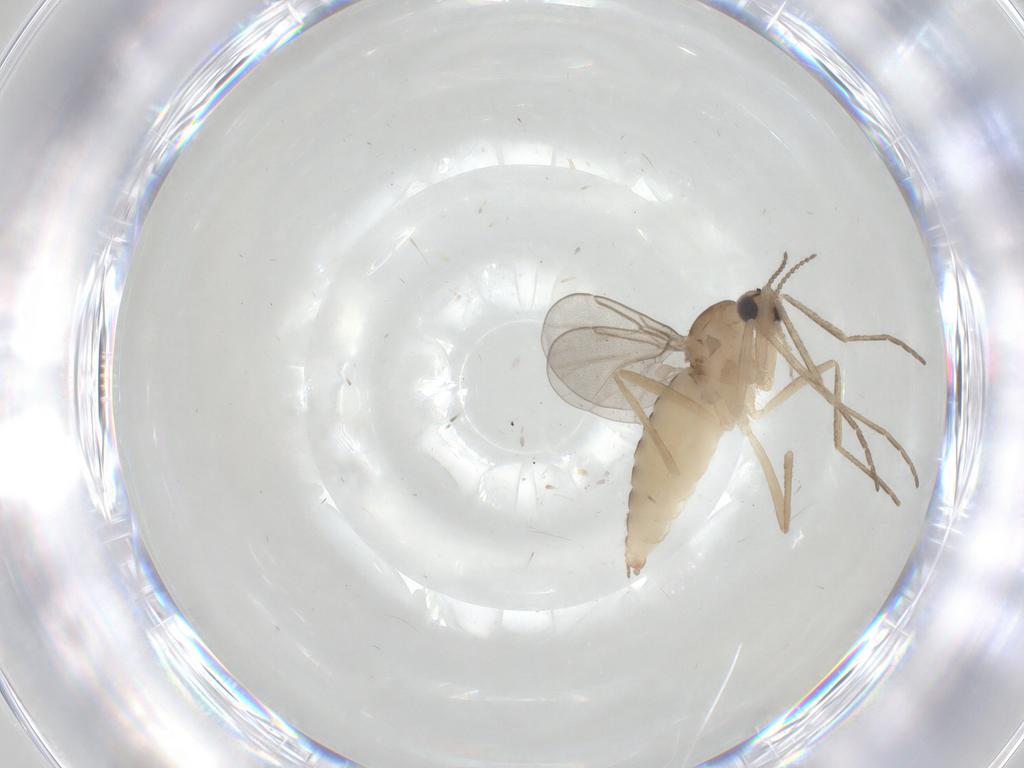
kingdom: Animalia
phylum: Arthropoda
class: Insecta
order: Diptera
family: Cecidomyiidae
